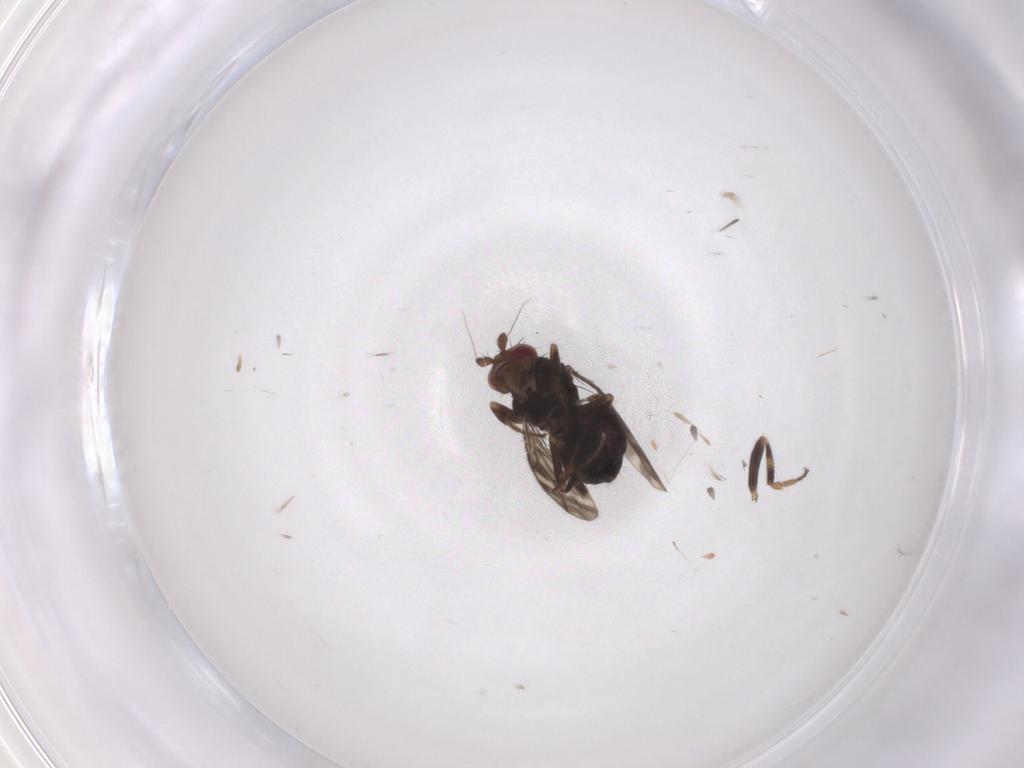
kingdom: Animalia
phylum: Arthropoda
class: Insecta
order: Diptera
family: Sphaeroceridae
